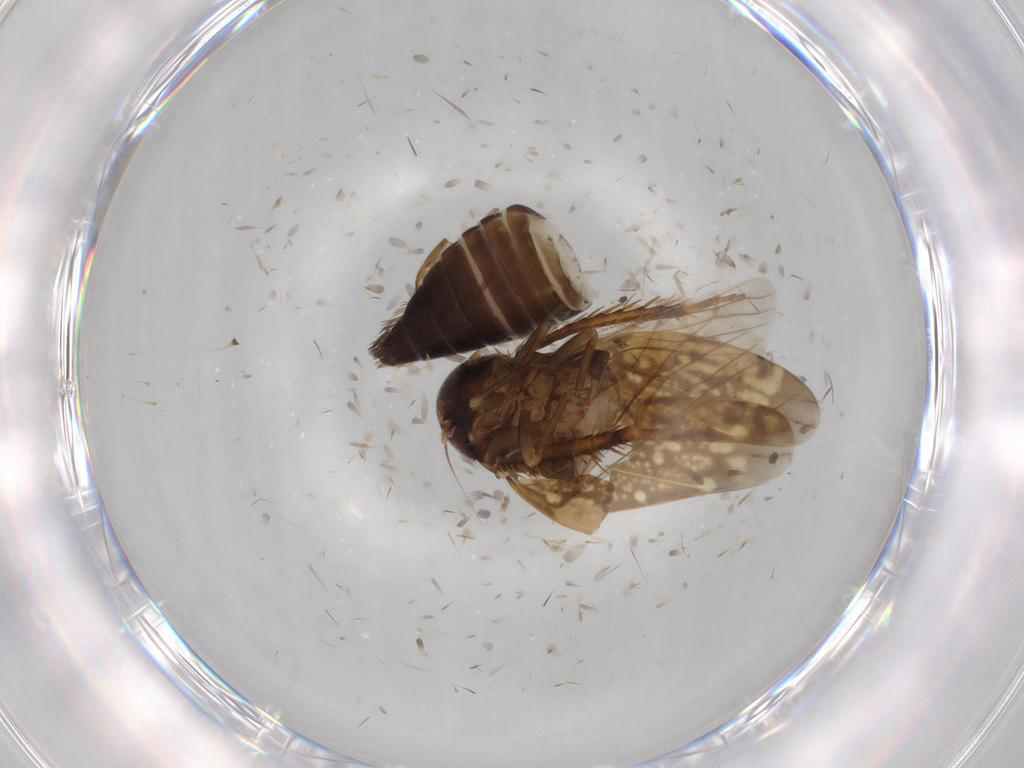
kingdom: Animalia
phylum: Arthropoda
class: Insecta
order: Hemiptera
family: Cicadellidae
